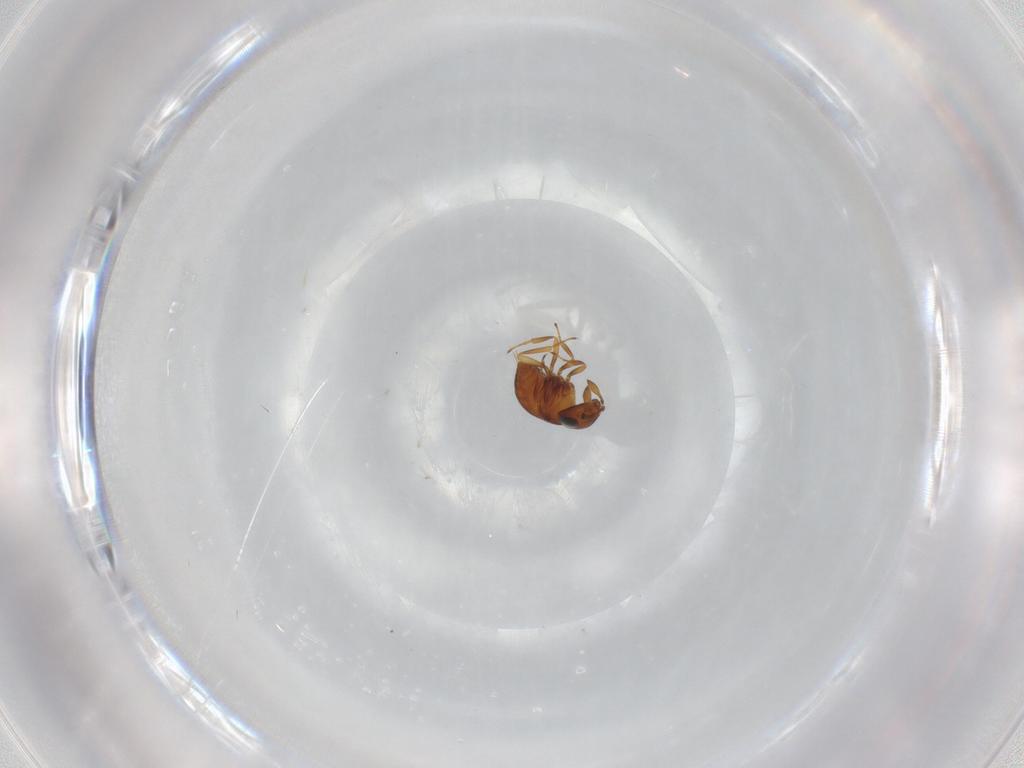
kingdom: Animalia
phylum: Arthropoda
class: Insecta
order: Hymenoptera
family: Scelionidae
